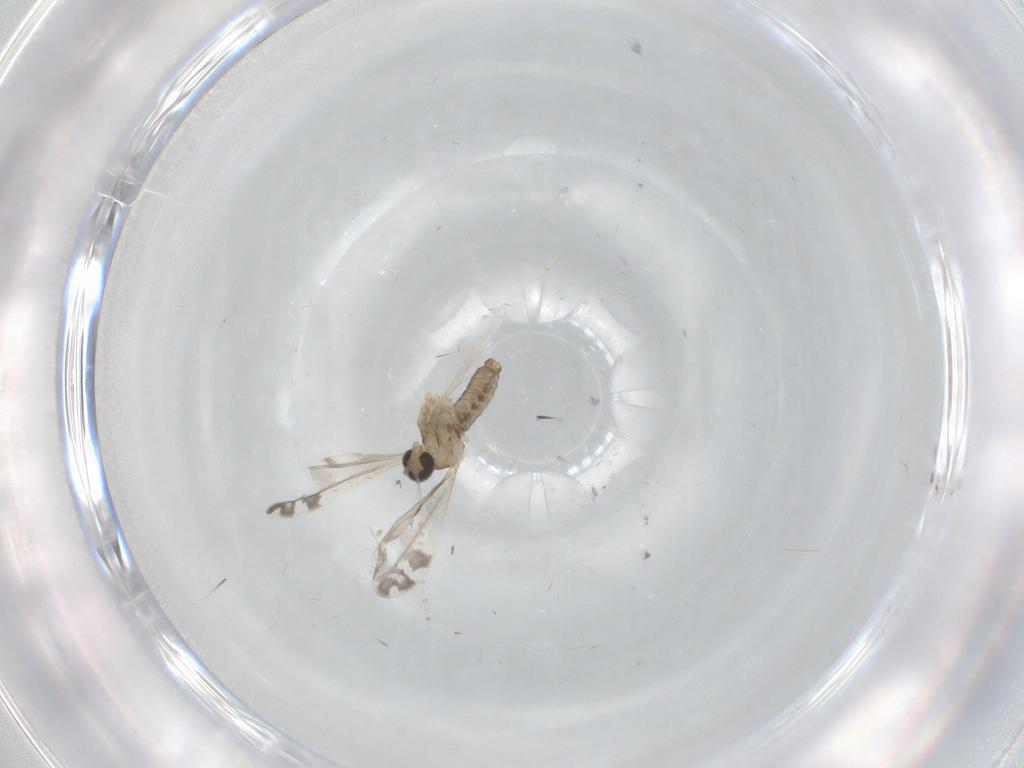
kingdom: Animalia
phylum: Arthropoda
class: Insecta
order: Diptera
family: Cecidomyiidae
